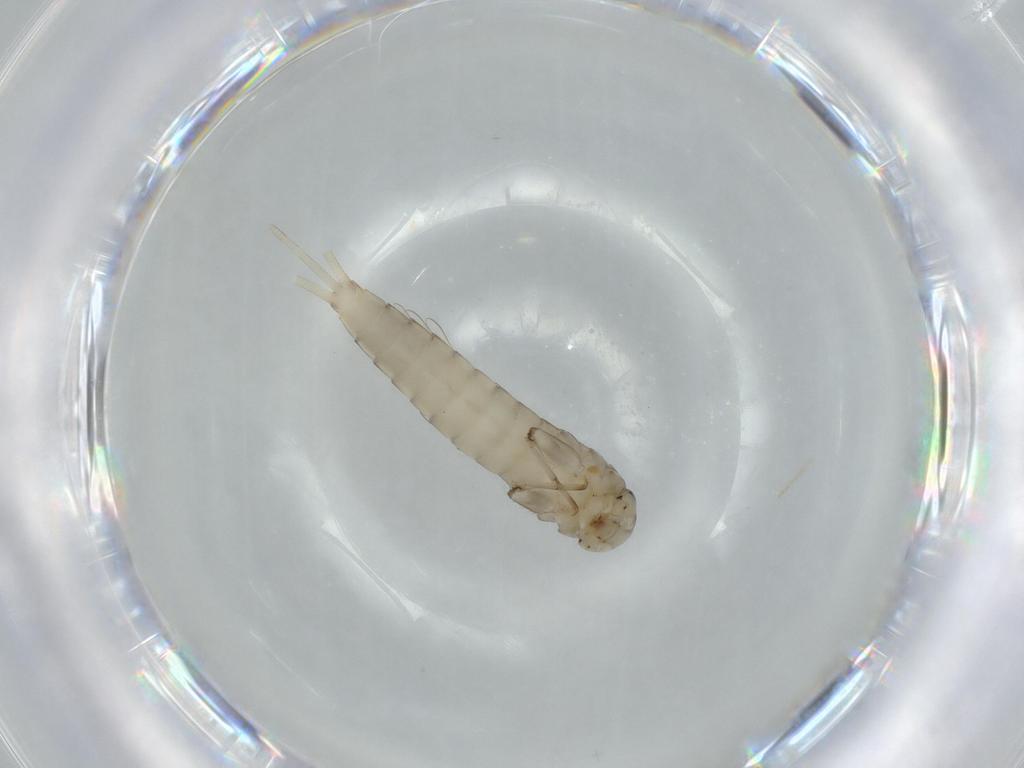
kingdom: Animalia
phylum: Arthropoda
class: Insecta
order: Ephemeroptera
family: Baetidae
